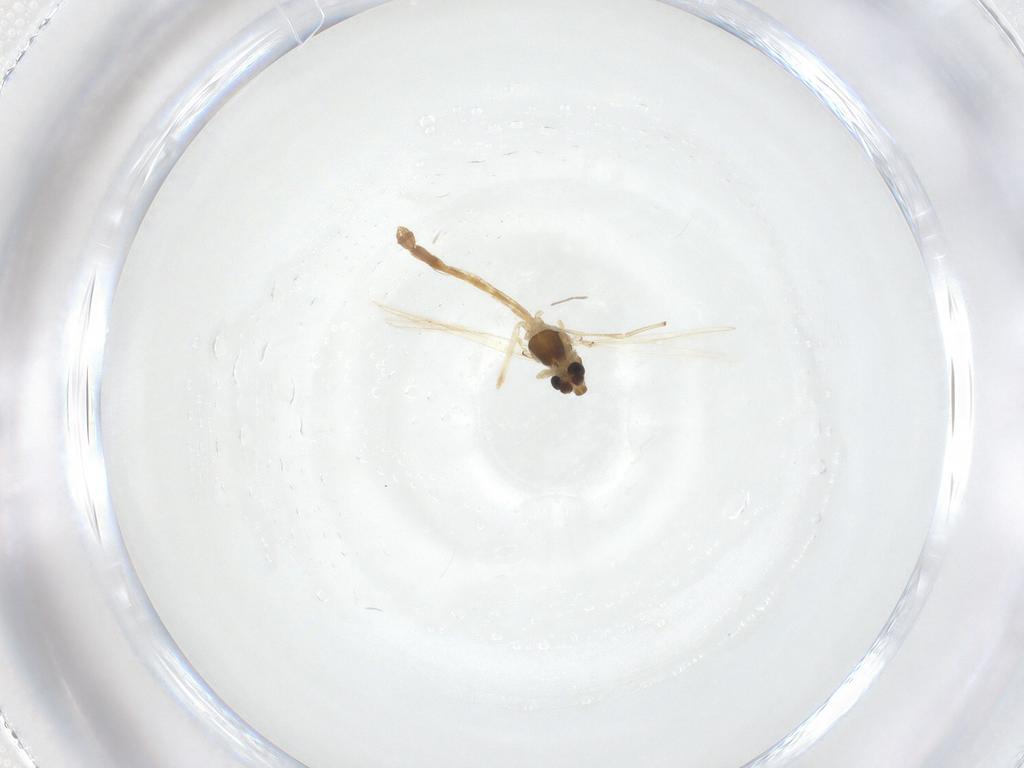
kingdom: Animalia
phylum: Arthropoda
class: Insecta
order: Diptera
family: Chironomidae
